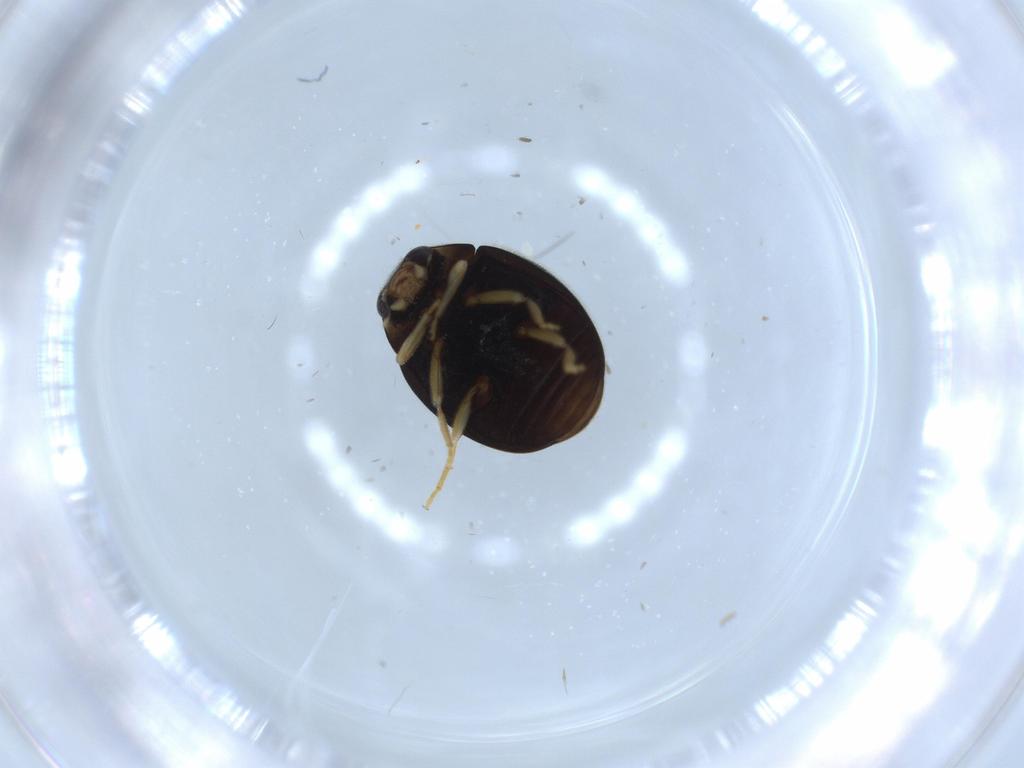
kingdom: Animalia
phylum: Arthropoda
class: Insecta
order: Coleoptera
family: Coccinellidae
